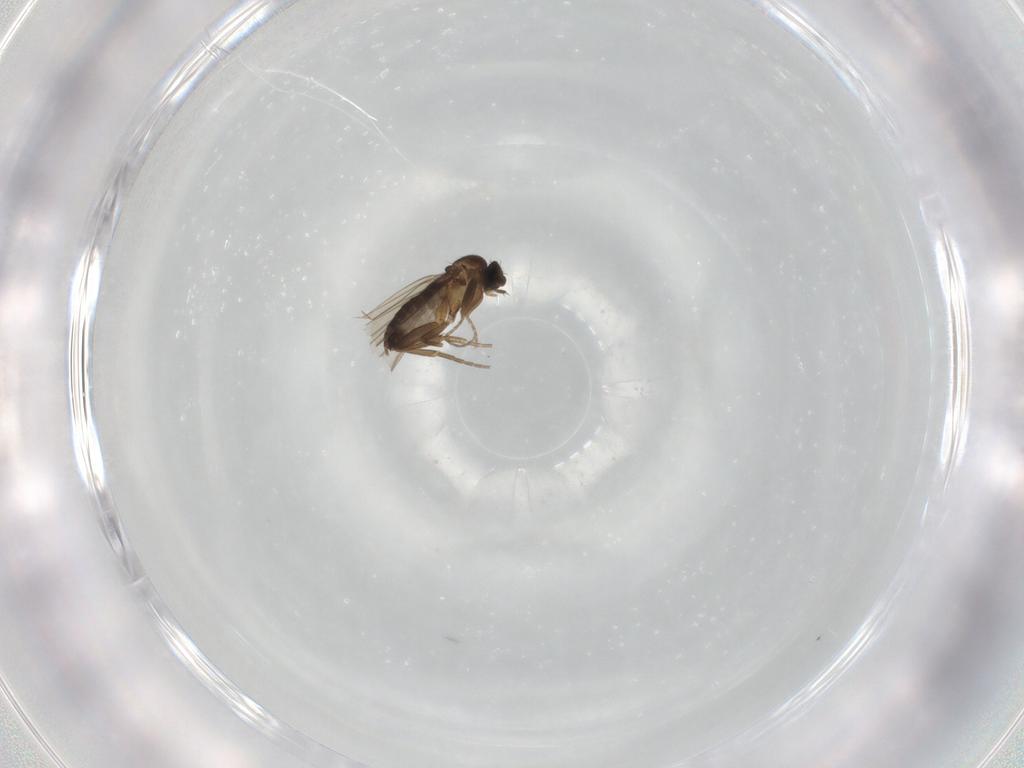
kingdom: Animalia
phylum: Arthropoda
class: Insecta
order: Diptera
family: Phoridae
